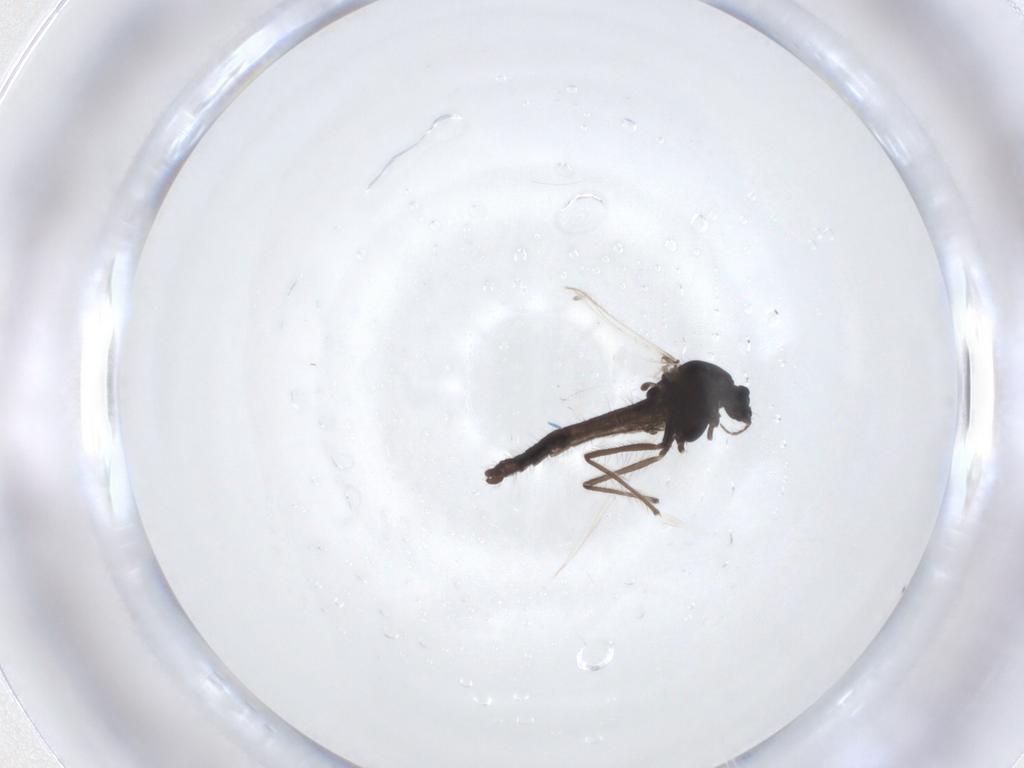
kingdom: Animalia
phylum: Arthropoda
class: Insecta
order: Diptera
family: Chironomidae
